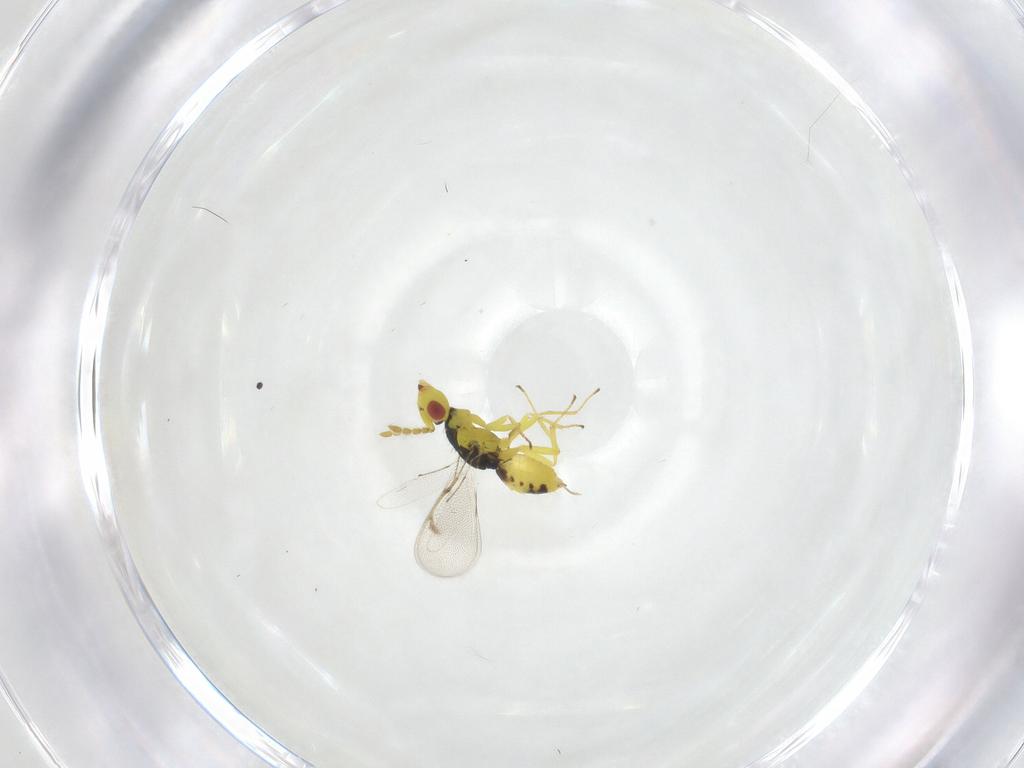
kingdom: Animalia
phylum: Arthropoda
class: Insecta
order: Hymenoptera
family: Eulophidae
